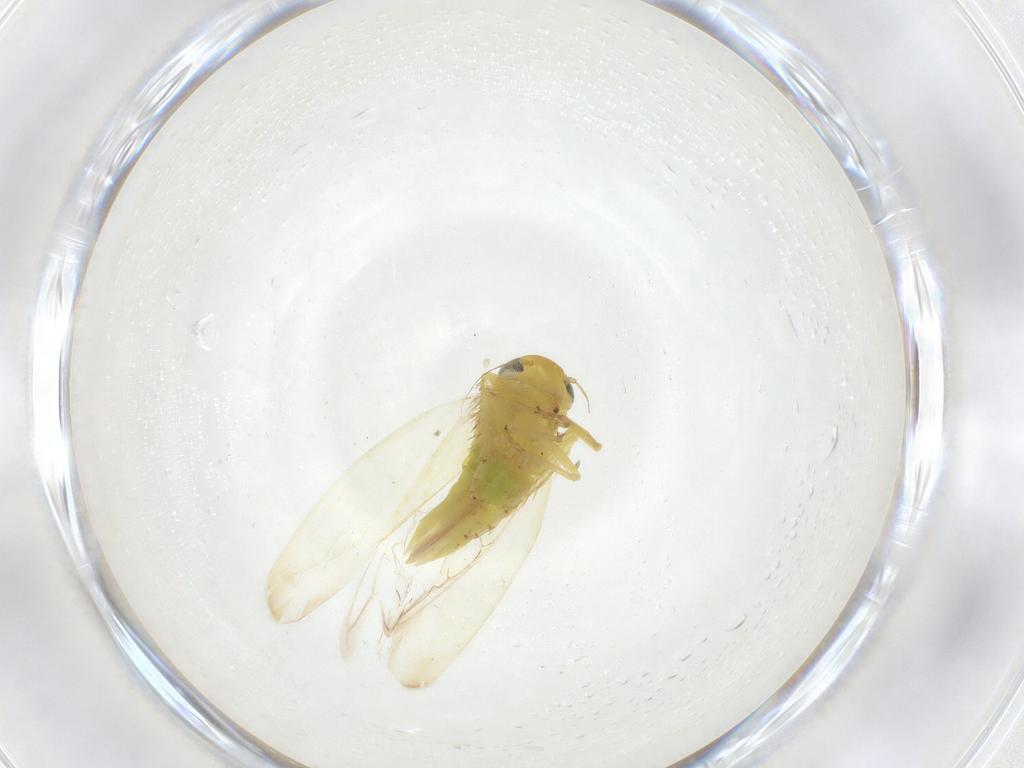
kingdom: Animalia
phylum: Arthropoda
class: Insecta
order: Hemiptera
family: Cicadellidae
